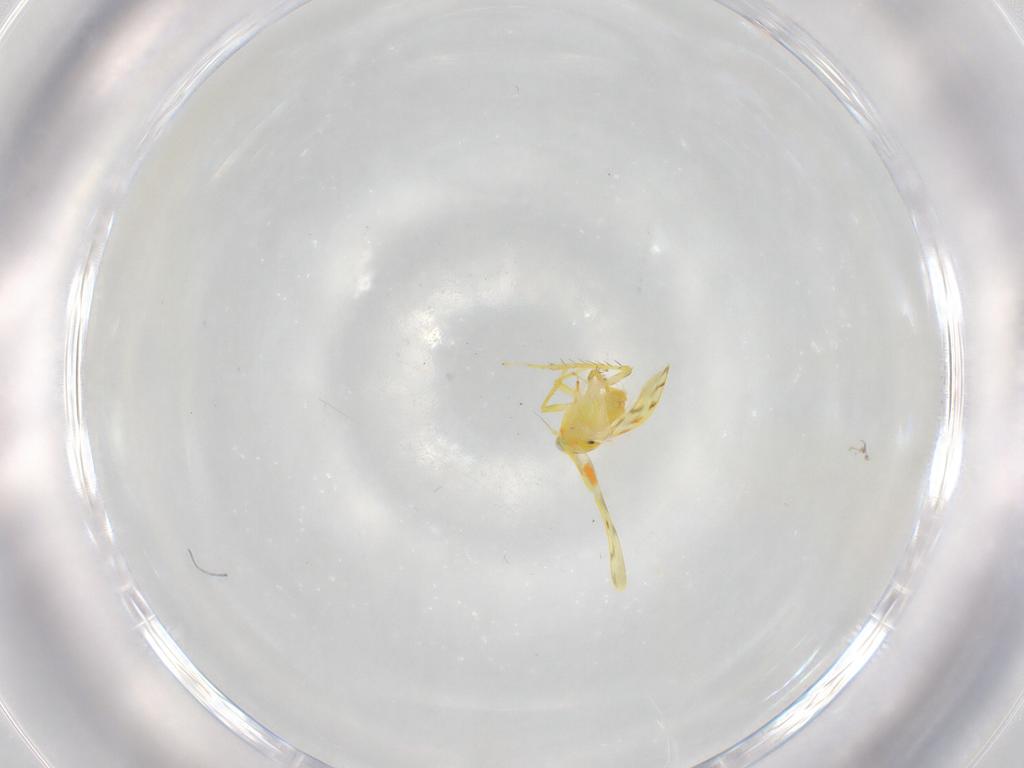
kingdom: Animalia
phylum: Arthropoda
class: Insecta
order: Hemiptera
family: Cicadellidae
